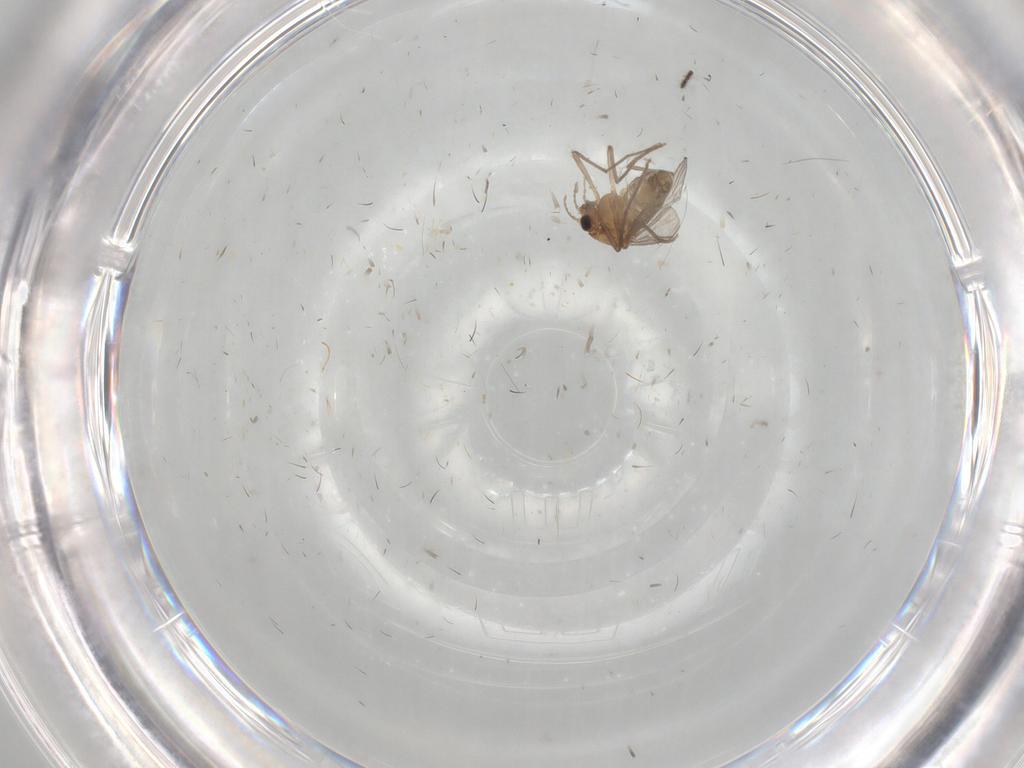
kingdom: Animalia
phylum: Arthropoda
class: Insecta
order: Diptera
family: Chironomidae
